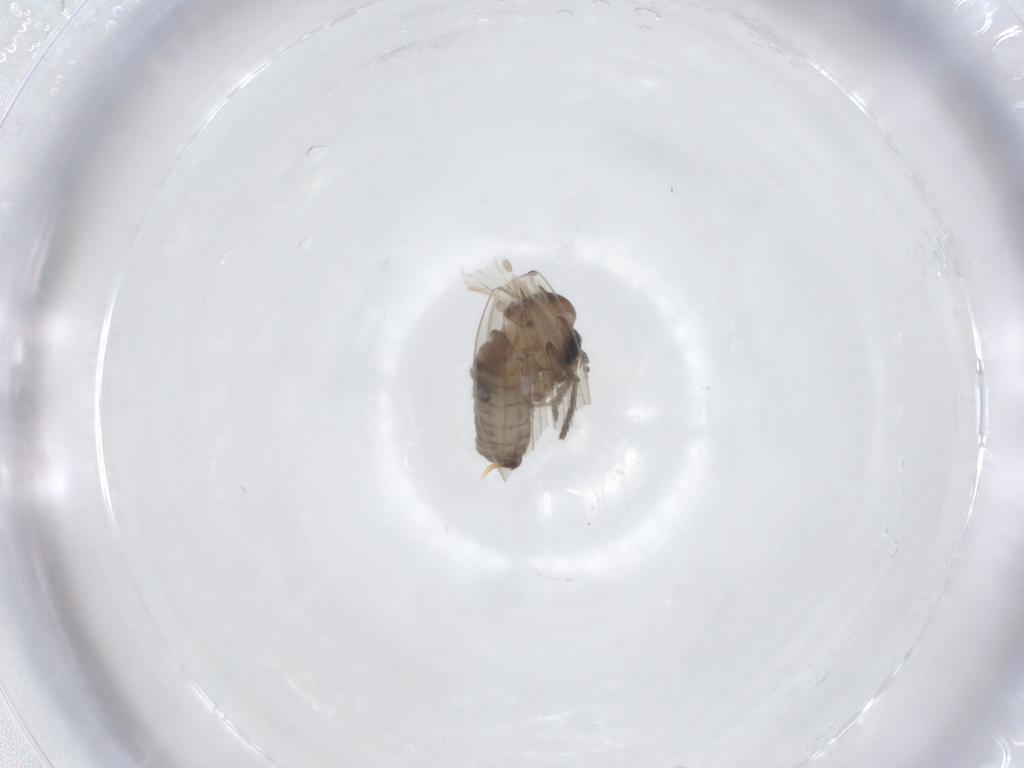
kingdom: Animalia
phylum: Arthropoda
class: Insecta
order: Diptera
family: Psychodidae
